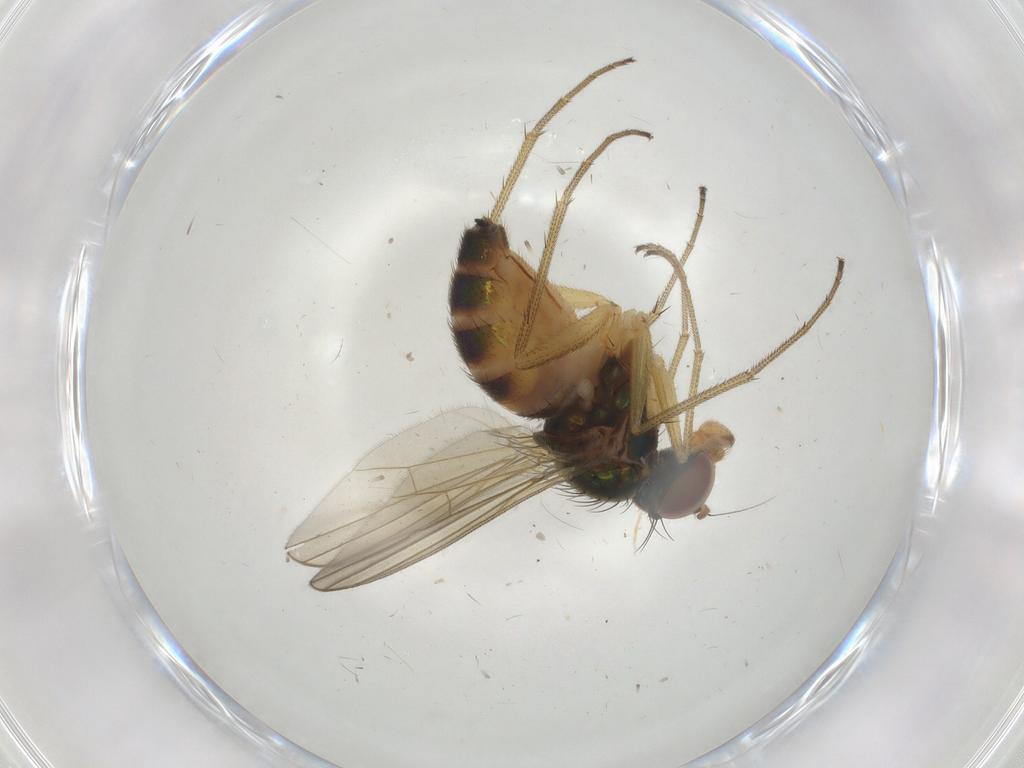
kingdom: Animalia
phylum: Arthropoda
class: Insecta
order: Diptera
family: Dolichopodidae
